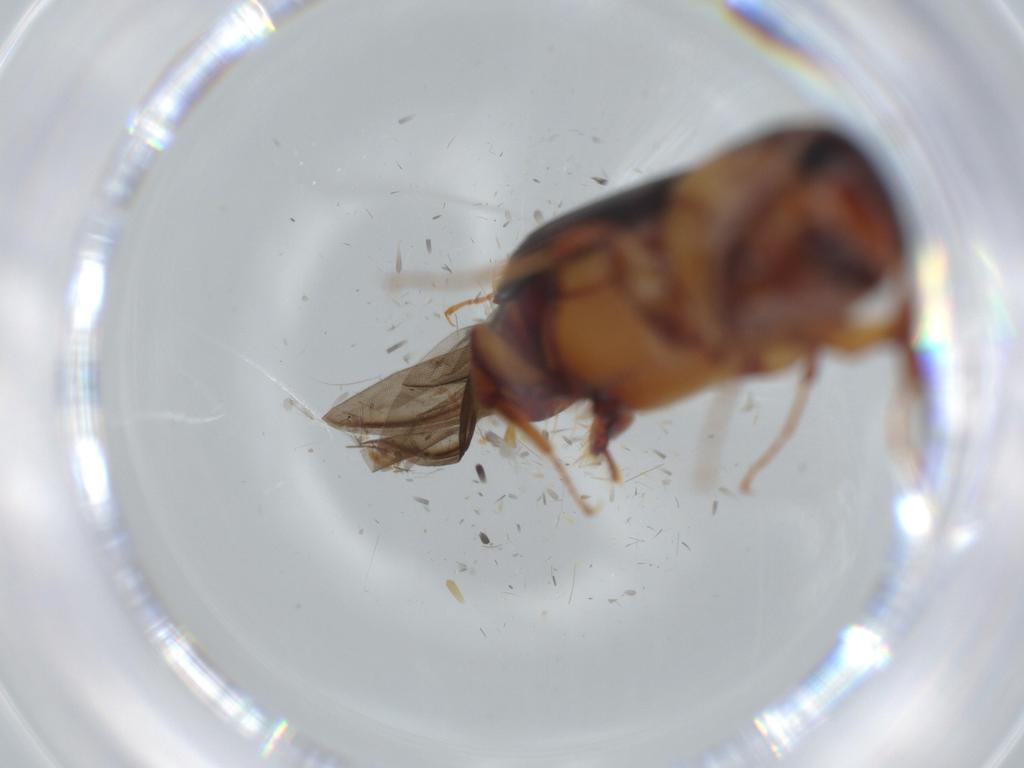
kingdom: Animalia
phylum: Arthropoda
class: Insecta
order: Coleoptera
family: Curculionidae
